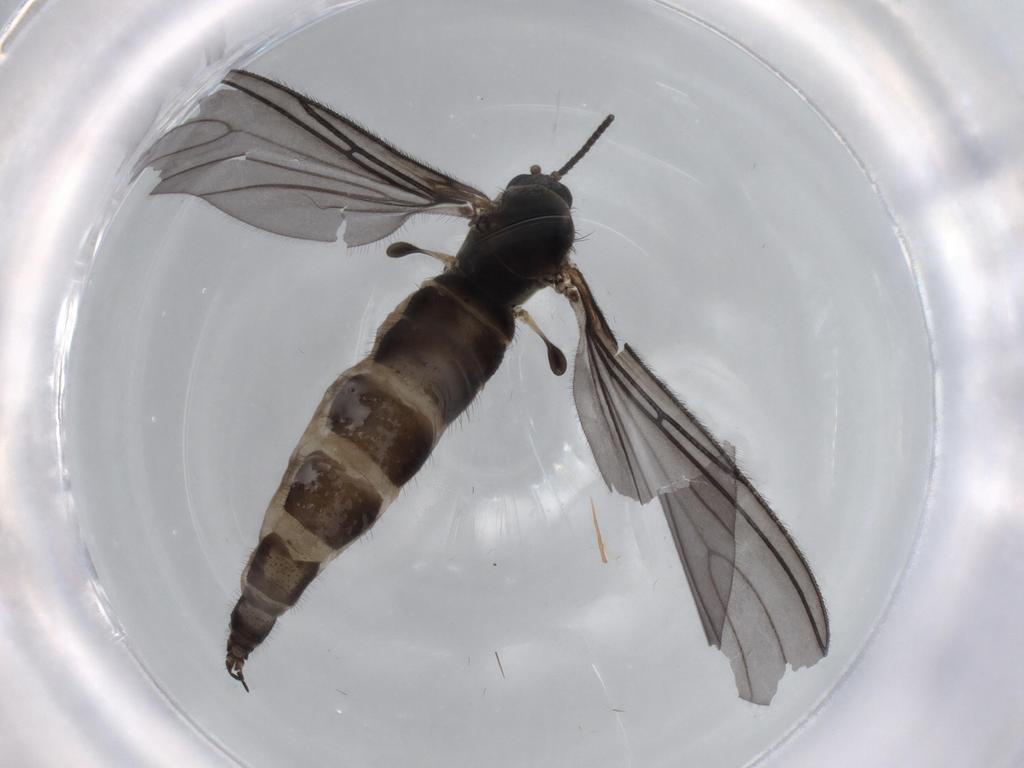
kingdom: Animalia
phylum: Arthropoda
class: Insecta
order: Diptera
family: Sciaridae
